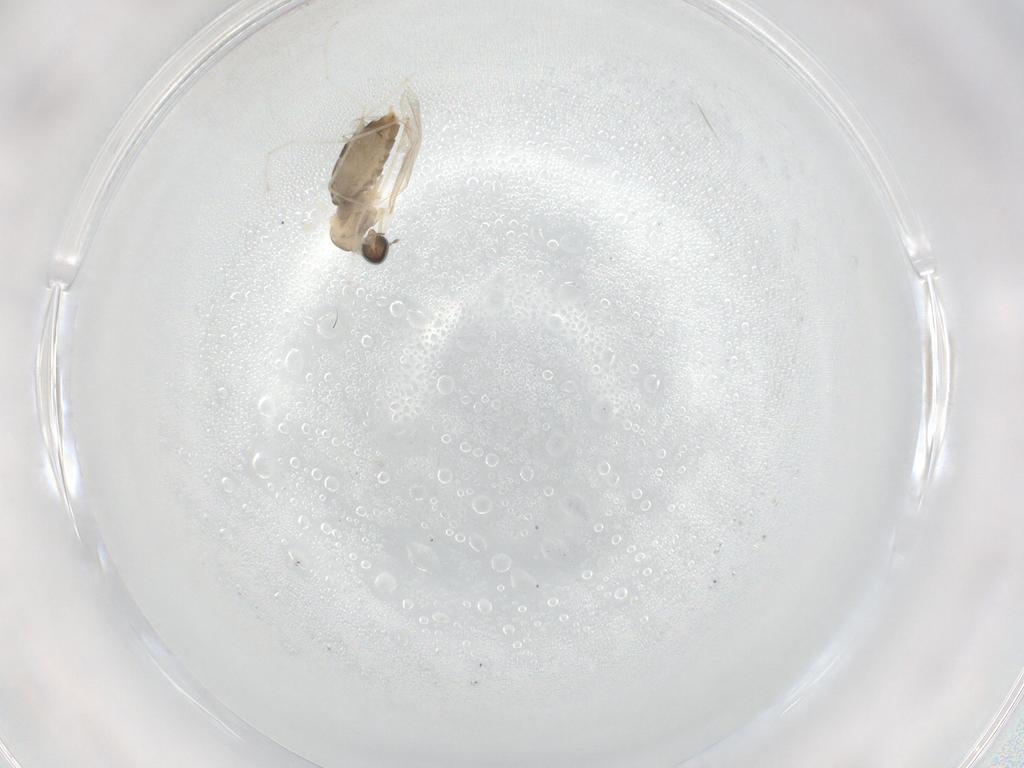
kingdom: Animalia
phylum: Arthropoda
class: Insecta
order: Diptera
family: Cecidomyiidae
